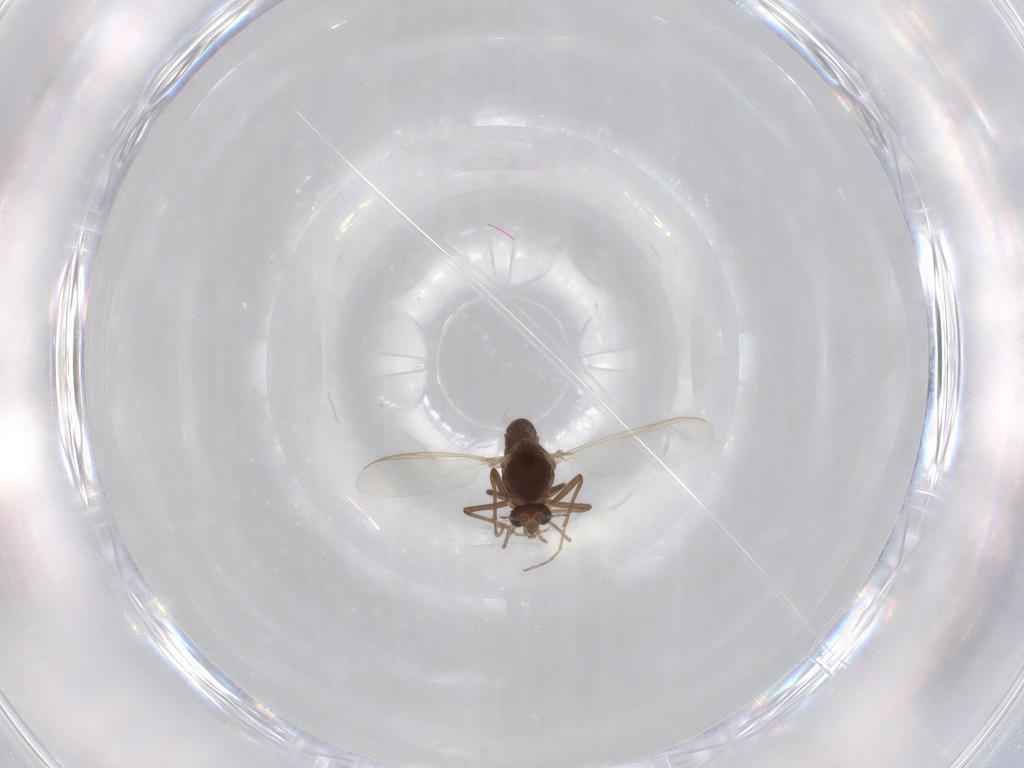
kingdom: Animalia
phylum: Arthropoda
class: Insecta
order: Diptera
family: Chironomidae
